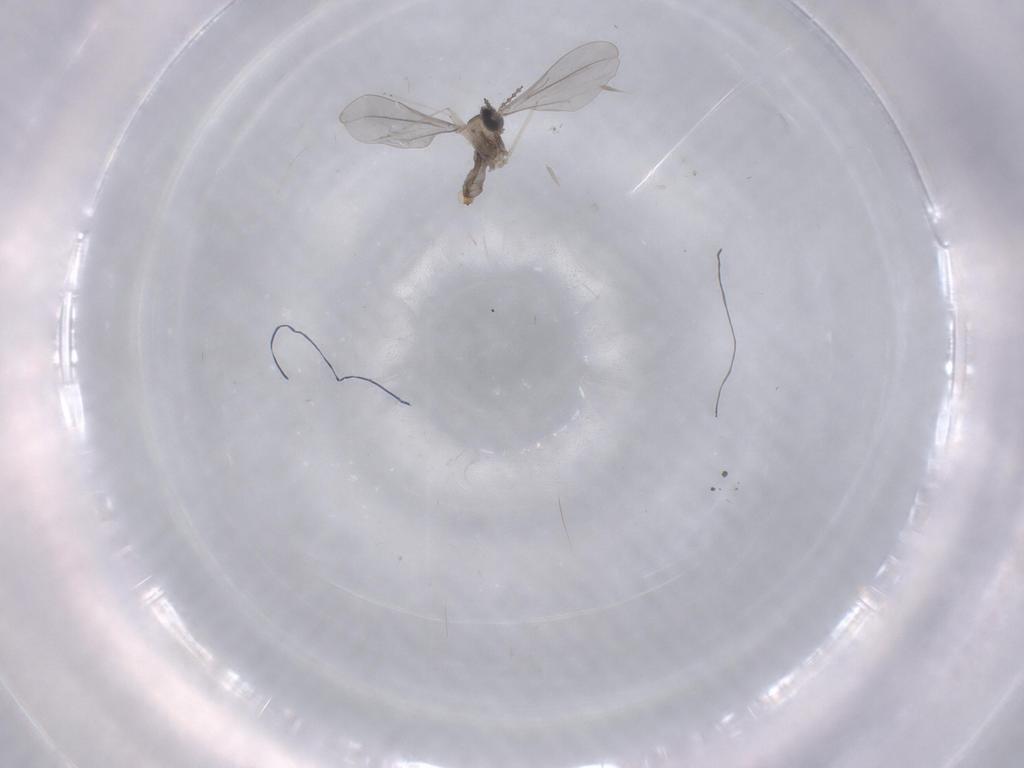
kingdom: Animalia
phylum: Arthropoda
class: Insecta
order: Diptera
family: Cecidomyiidae
